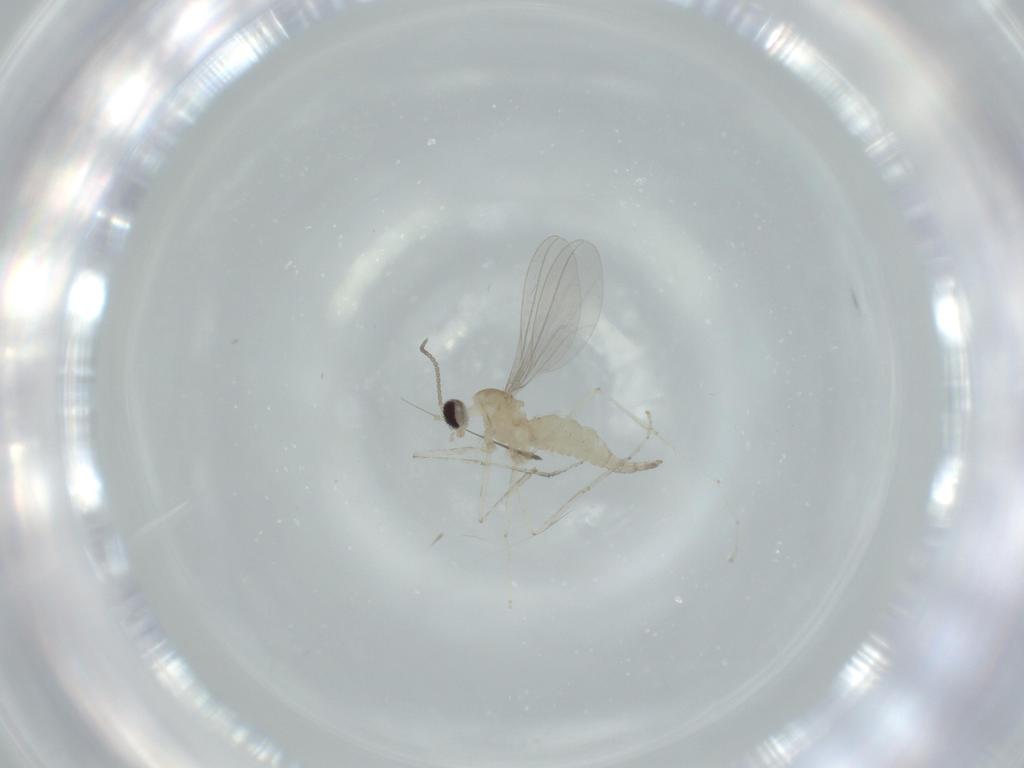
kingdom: Animalia
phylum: Arthropoda
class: Insecta
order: Diptera
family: Cecidomyiidae
